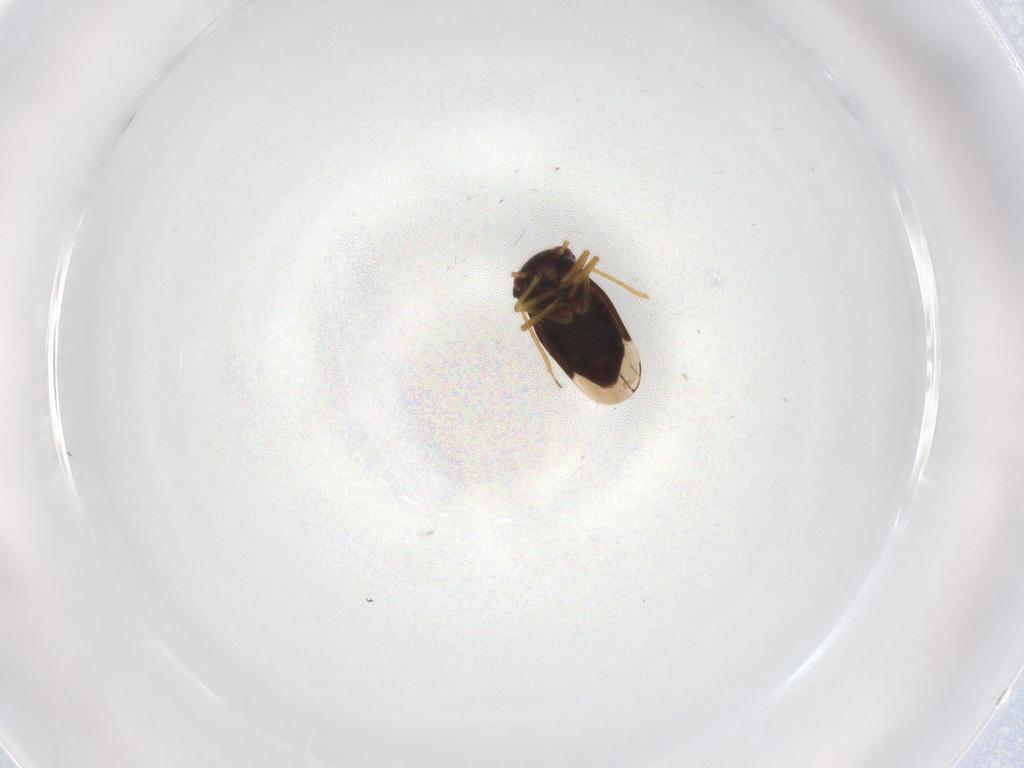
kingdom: Animalia
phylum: Arthropoda
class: Insecta
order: Hemiptera
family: Schizopteridae
